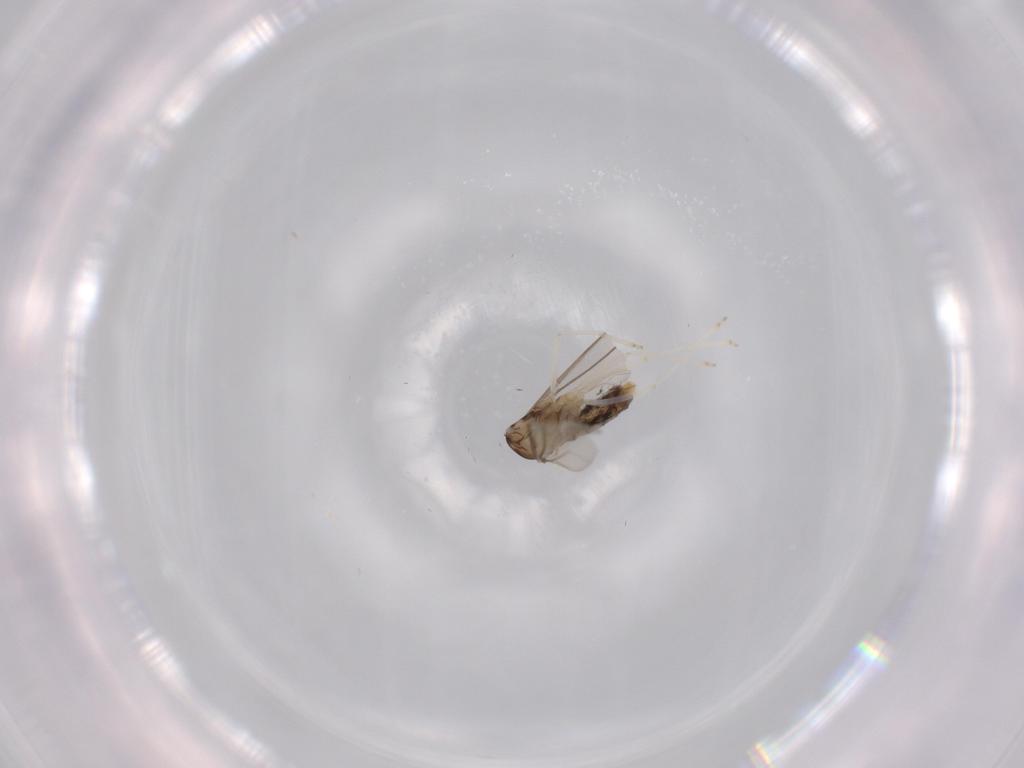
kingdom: Animalia
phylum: Arthropoda
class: Insecta
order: Diptera
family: Cecidomyiidae
